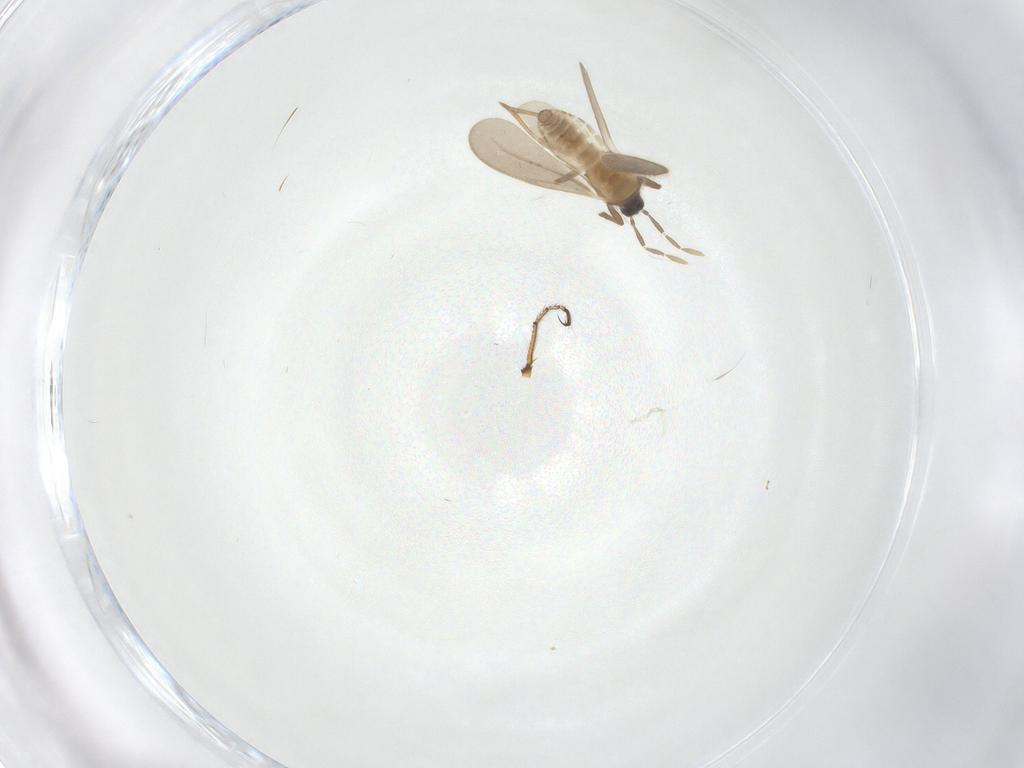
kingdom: Animalia
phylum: Arthropoda
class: Insecta
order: Hemiptera
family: Enicocephalidae
